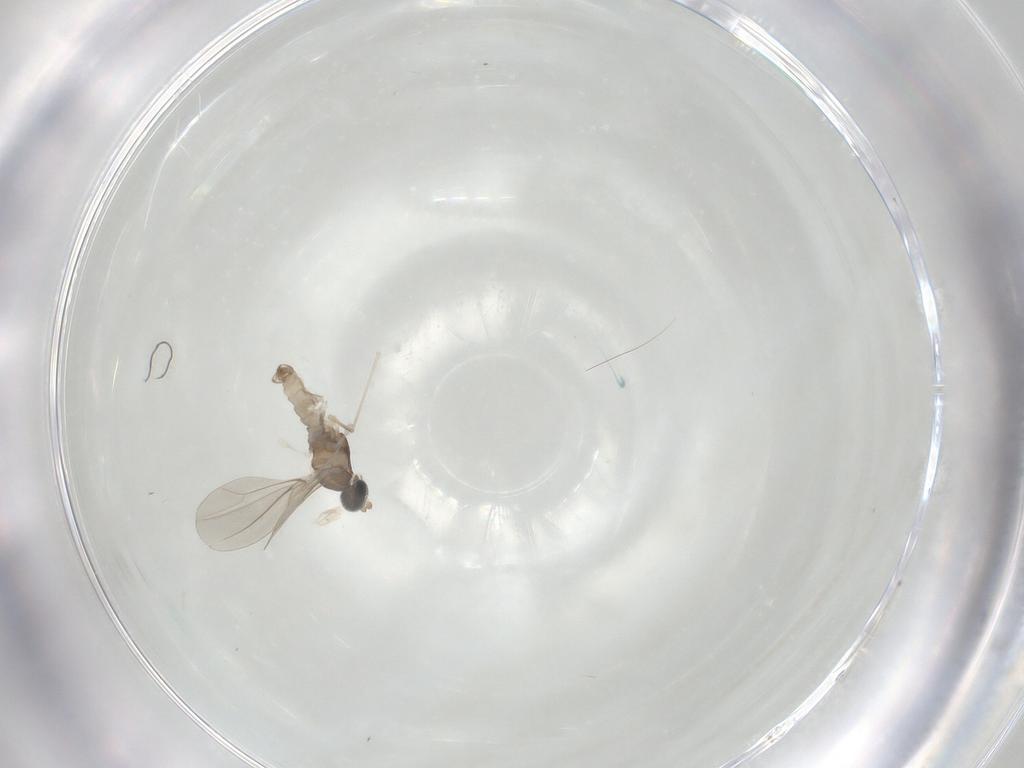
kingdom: Animalia
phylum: Arthropoda
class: Insecta
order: Diptera
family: Cecidomyiidae
